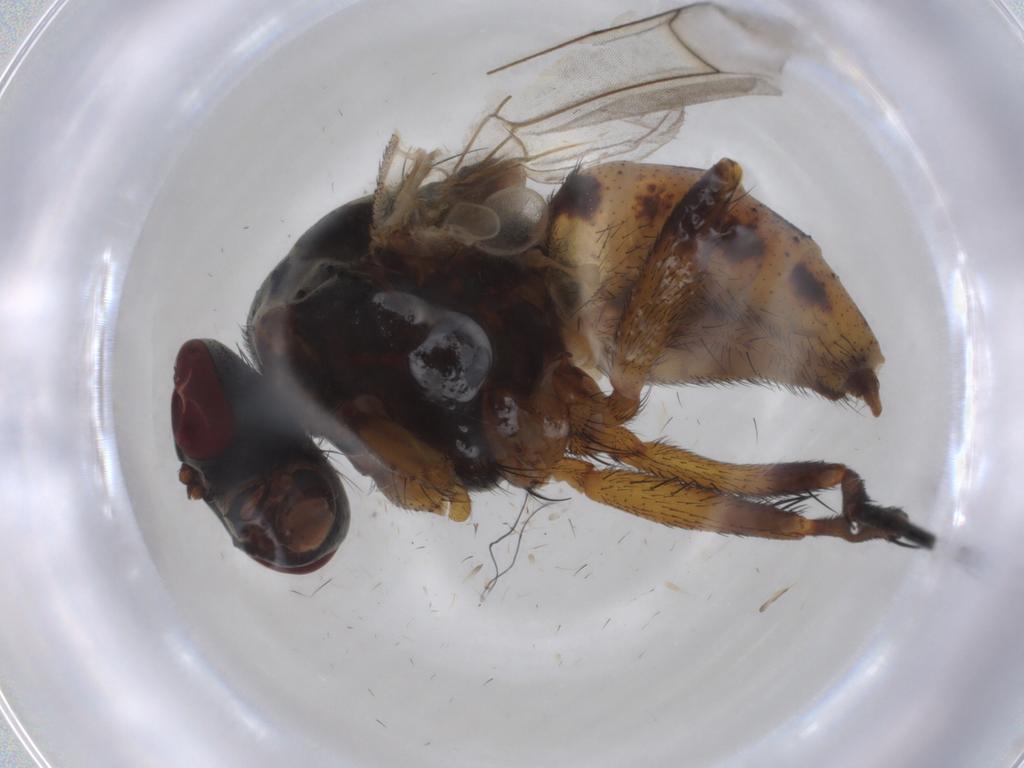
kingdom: Animalia
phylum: Arthropoda
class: Insecta
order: Diptera
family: Muscidae
